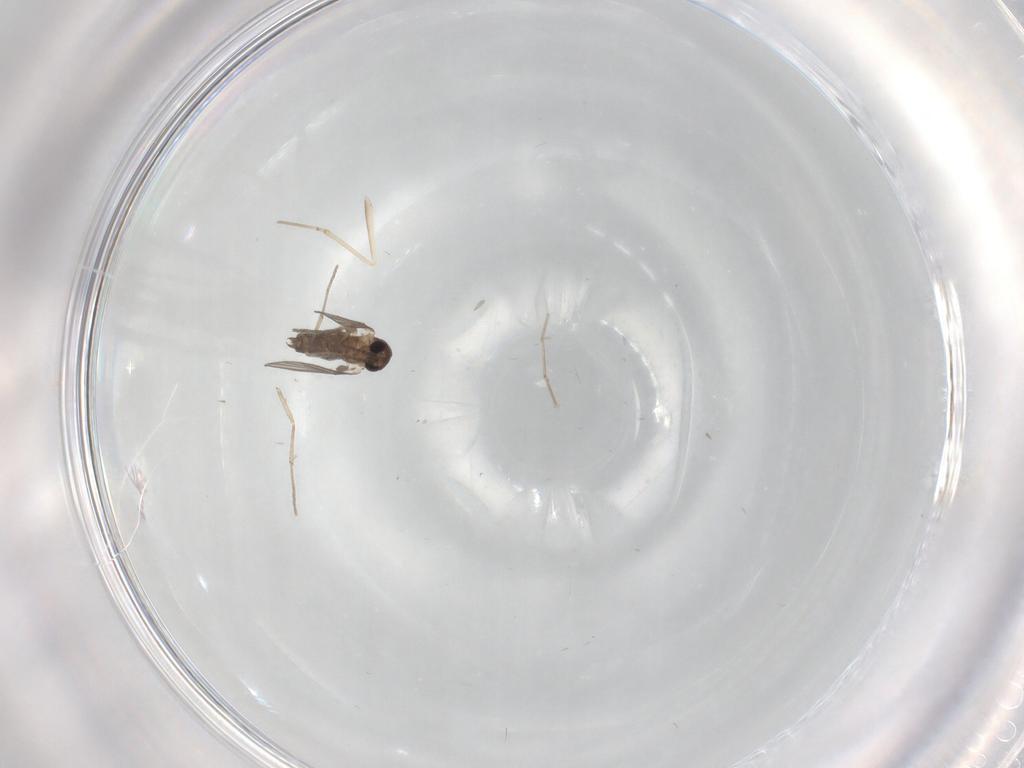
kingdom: Animalia
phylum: Arthropoda
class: Insecta
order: Diptera
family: Cecidomyiidae
